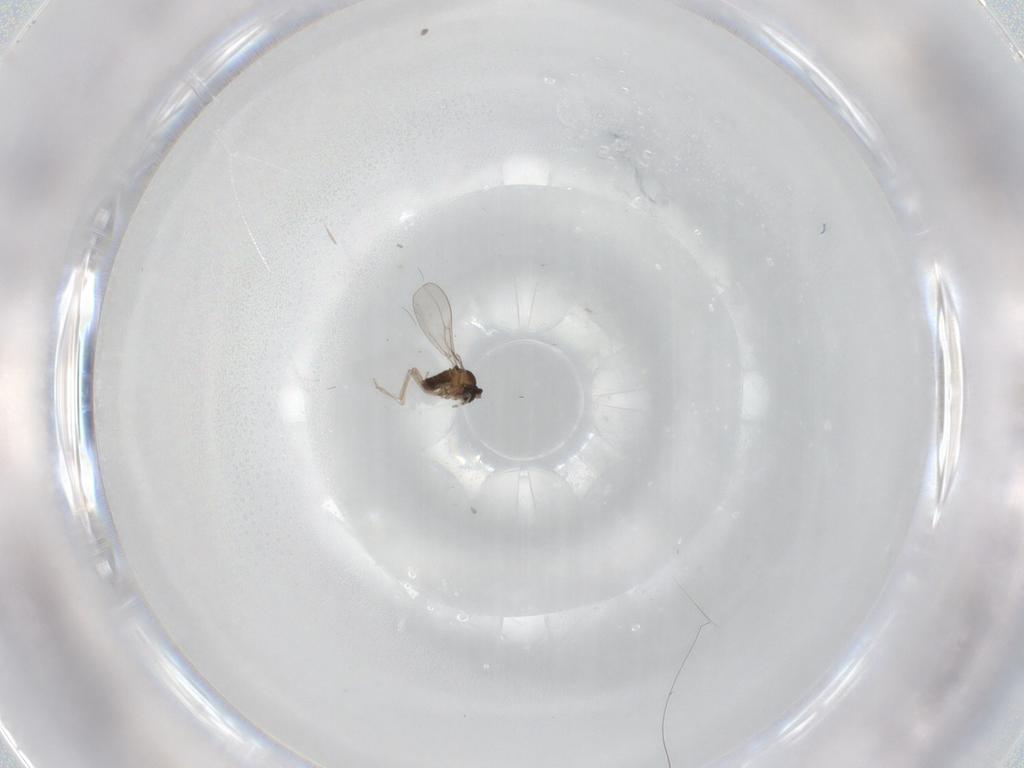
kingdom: Animalia
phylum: Arthropoda
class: Insecta
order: Diptera
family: Cecidomyiidae
